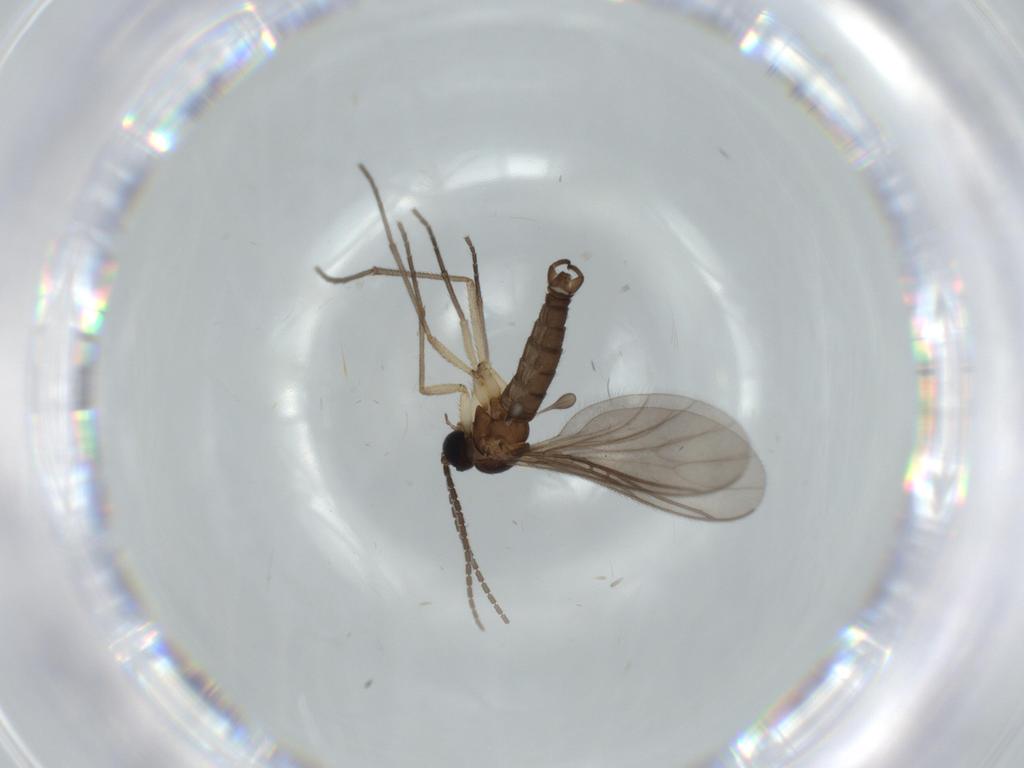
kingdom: Animalia
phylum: Arthropoda
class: Insecta
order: Diptera
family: Sciaridae
